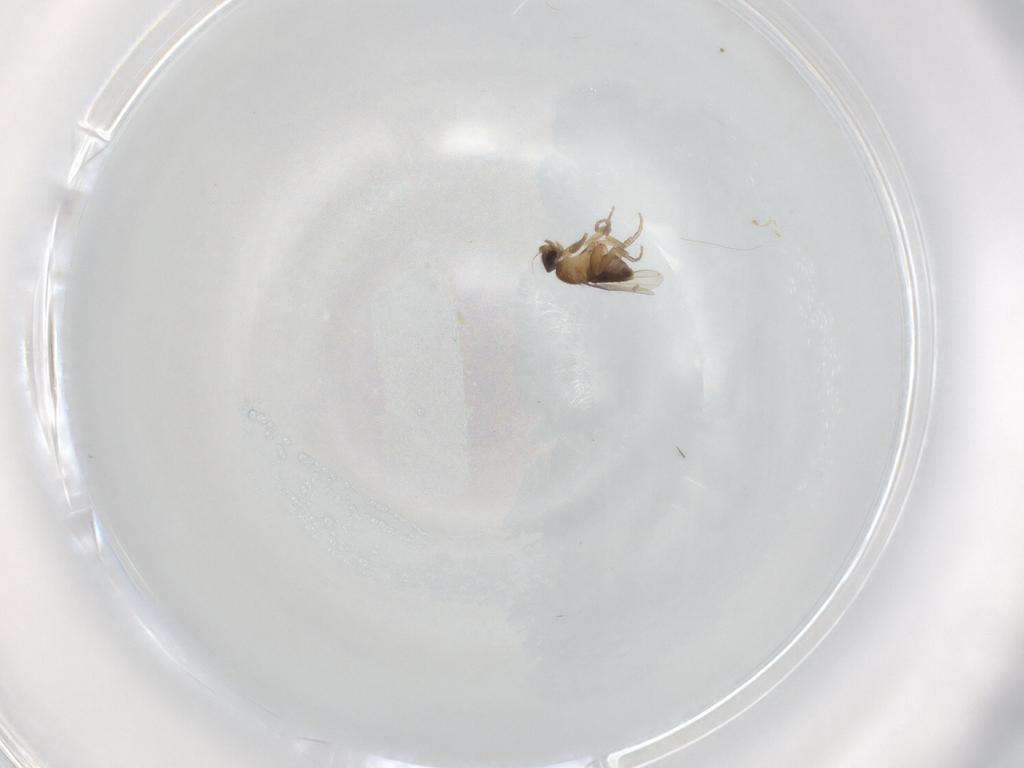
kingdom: Animalia
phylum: Arthropoda
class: Insecta
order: Diptera
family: Phoridae
